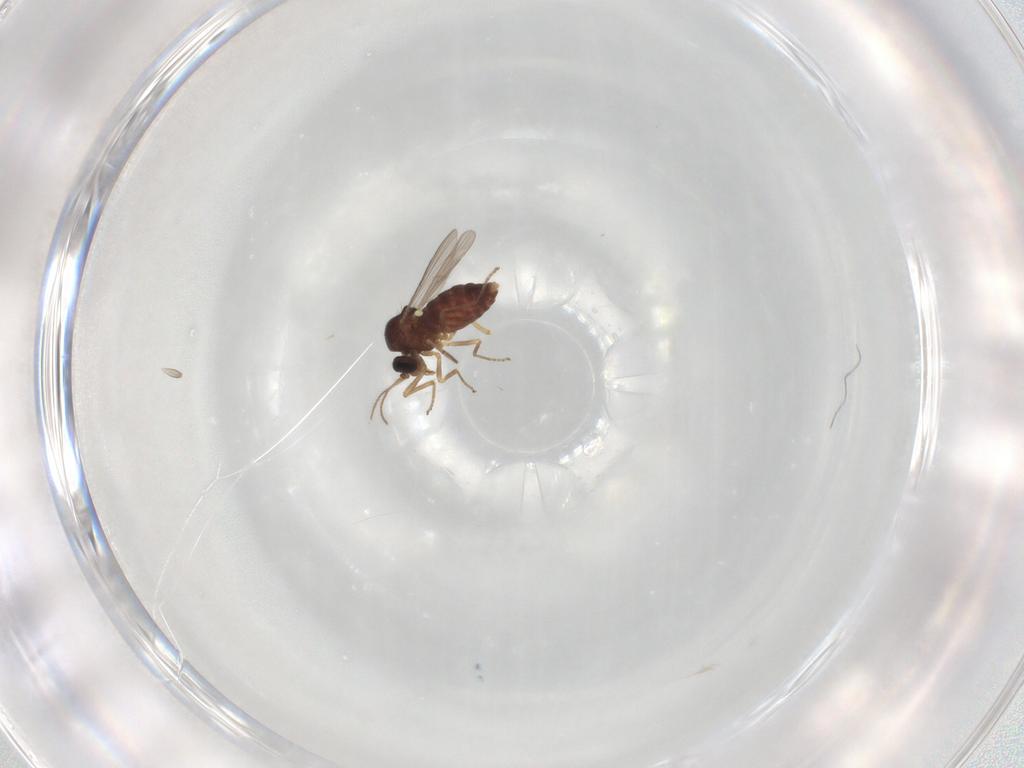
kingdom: Animalia
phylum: Arthropoda
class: Insecta
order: Diptera
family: Ceratopogonidae
